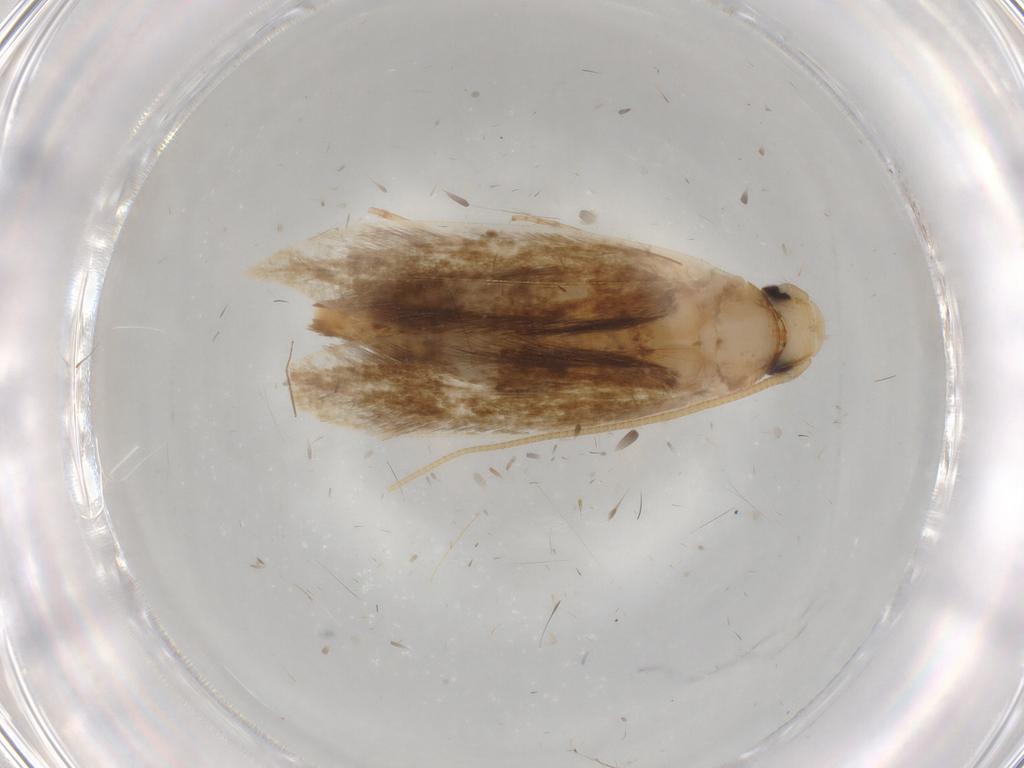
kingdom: Animalia
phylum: Arthropoda
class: Insecta
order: Lepidoptera
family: Tineidae
